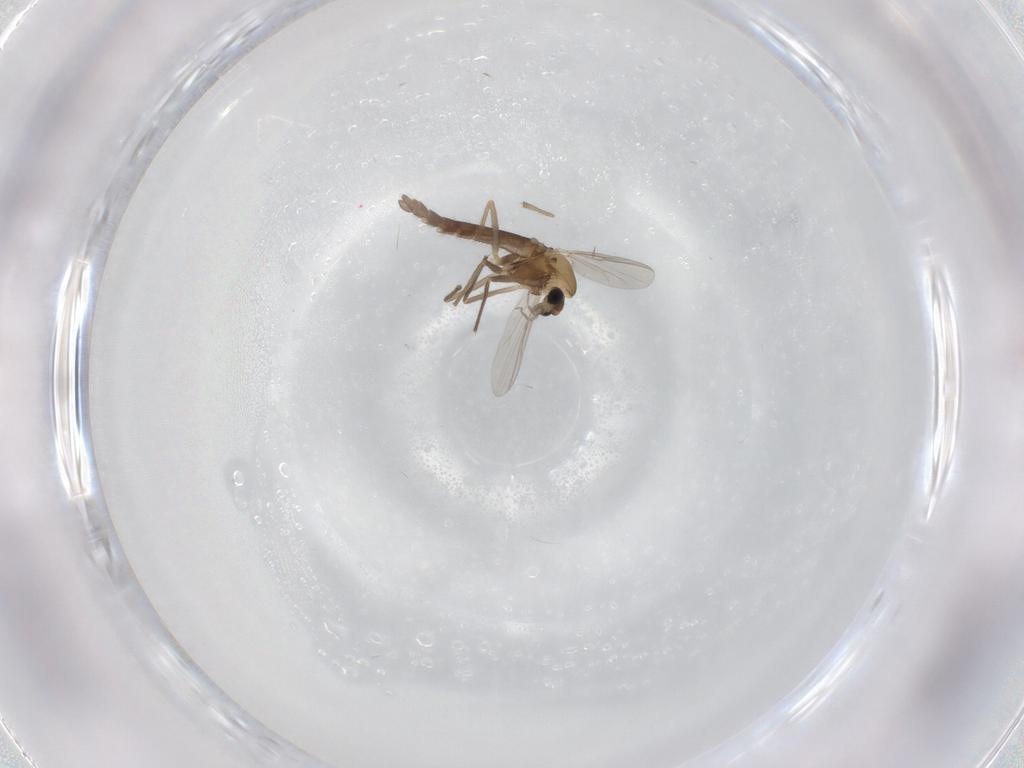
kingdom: Animalia
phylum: Arthropoda
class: Insecta
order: Diptera
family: Chironomidae
